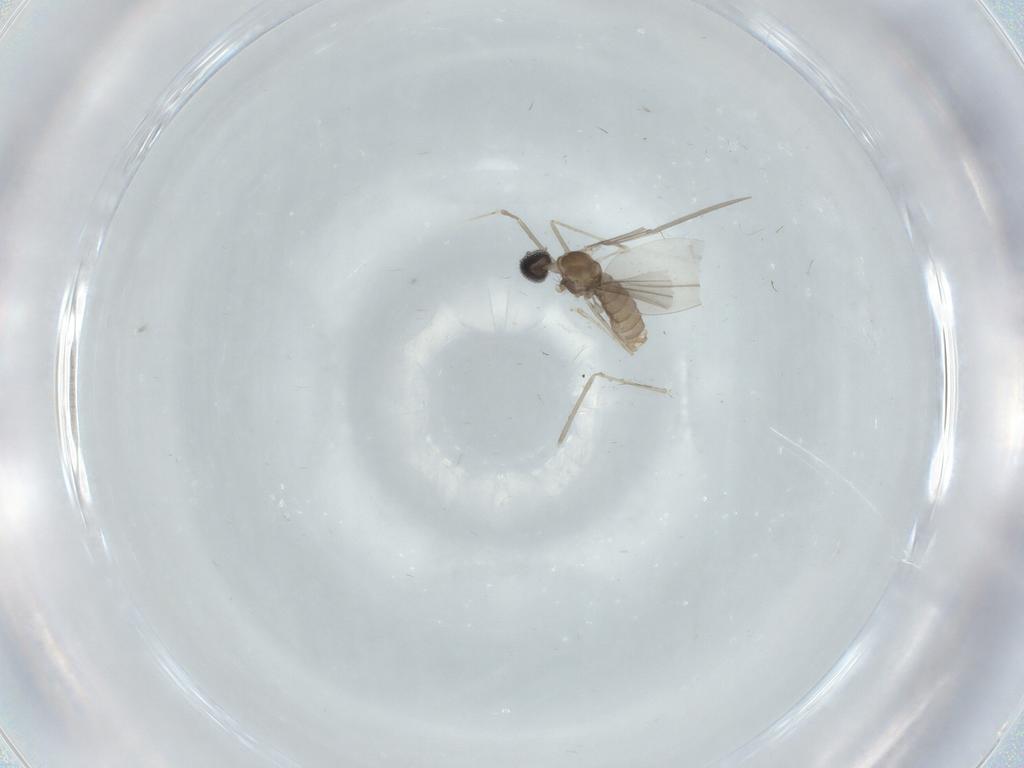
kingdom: Animalia
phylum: Arthropoda
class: Insecta
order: Diptera
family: Cecidomyiidae
